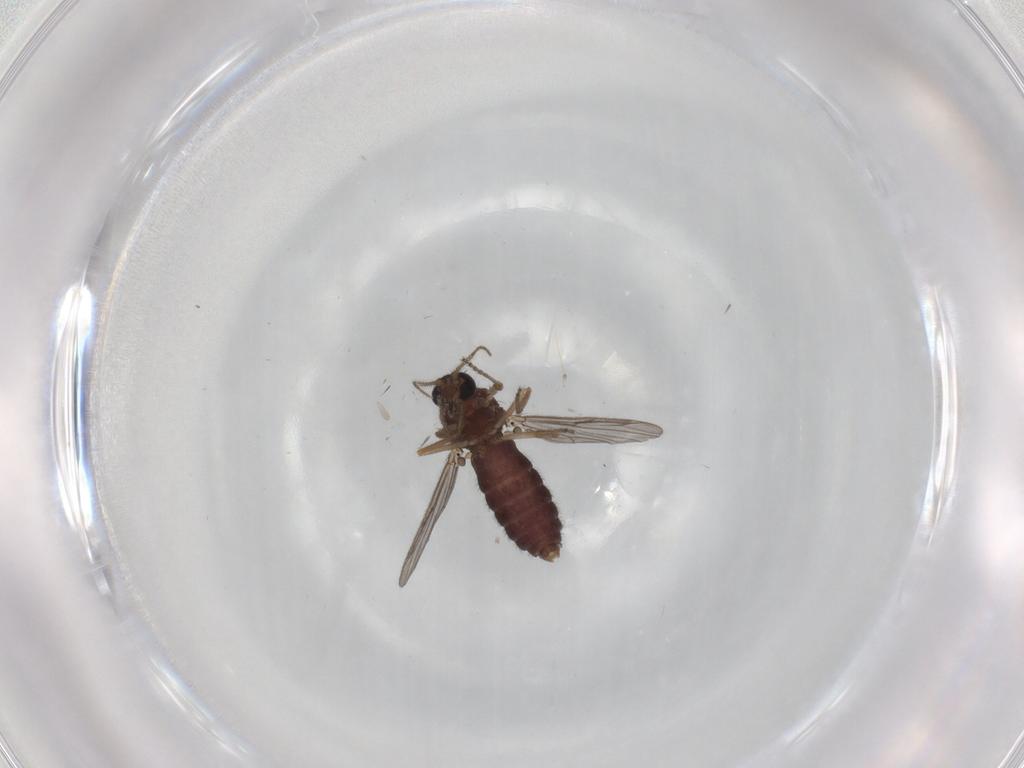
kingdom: Animalia
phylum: Arthropoda
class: Insecta
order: Diptera
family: Ceratopogonidae
